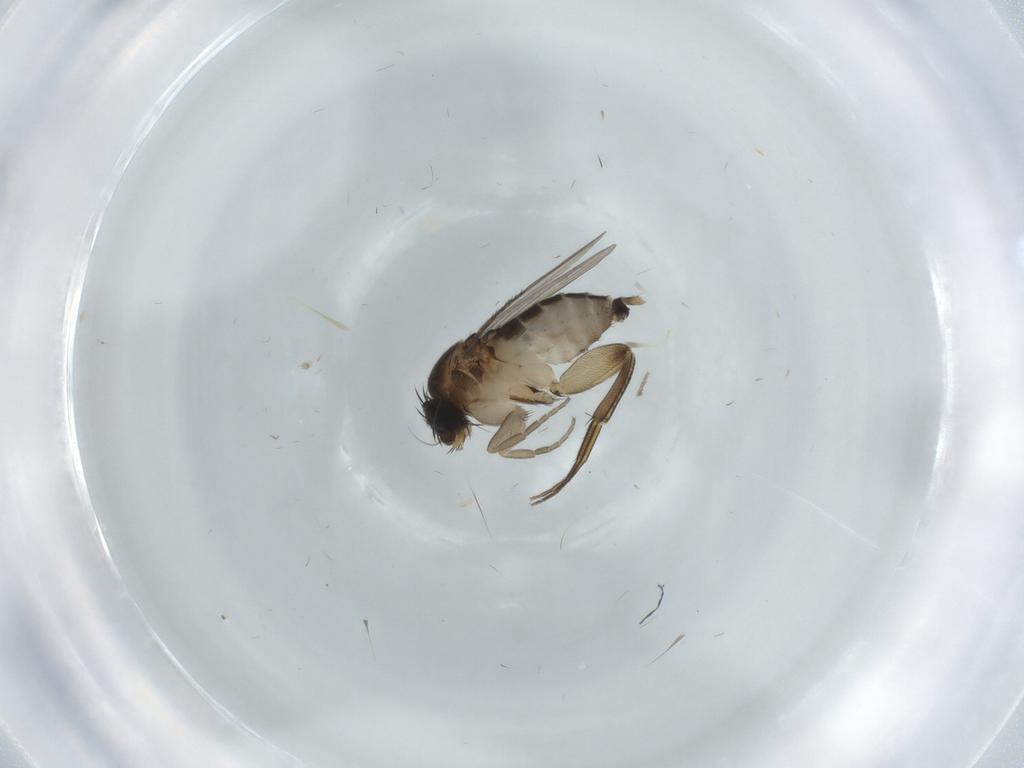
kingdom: Animalia
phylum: Arthropoda
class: Insecta
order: Diptera
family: Phoridae
